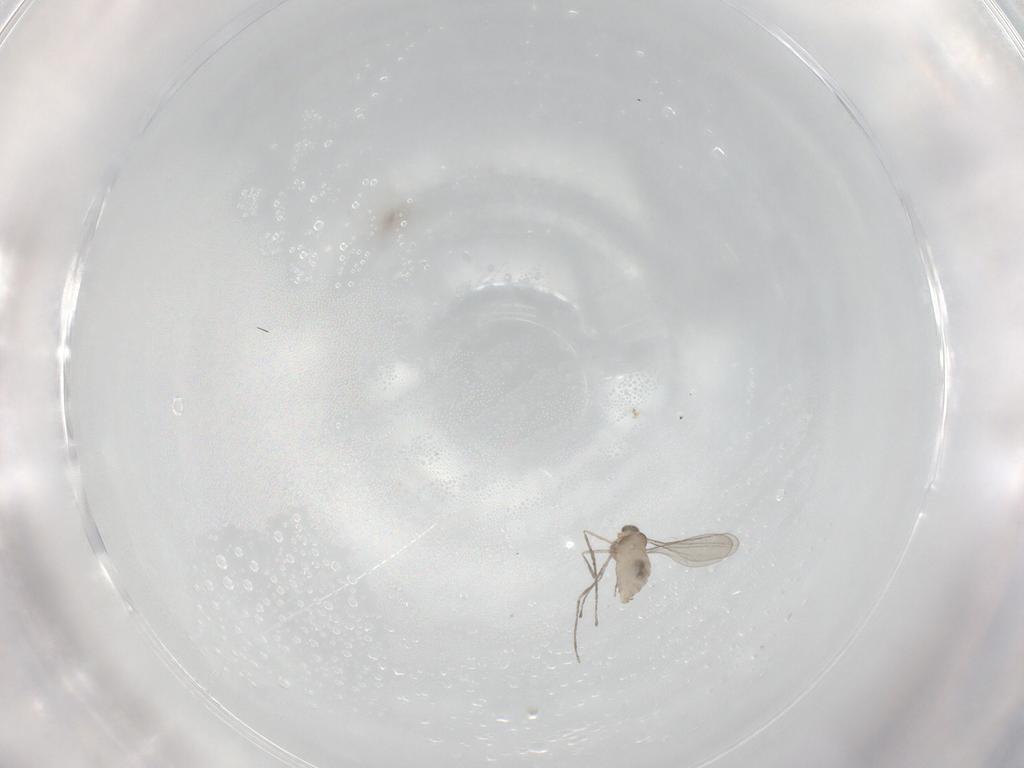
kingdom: Animalia
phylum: Arthropoda
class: Insecta
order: Diptera
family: Cecidomyiidae
